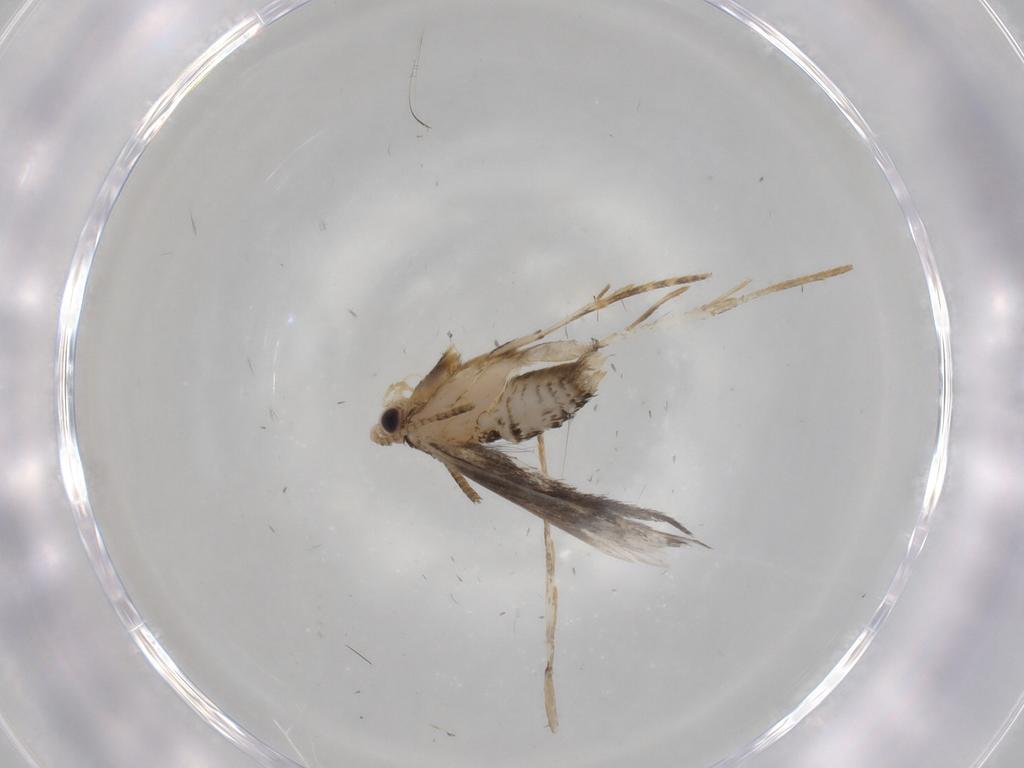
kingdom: Animalia
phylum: Arthropoda
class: Insecta
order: Lepidoptera
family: Tineidae
